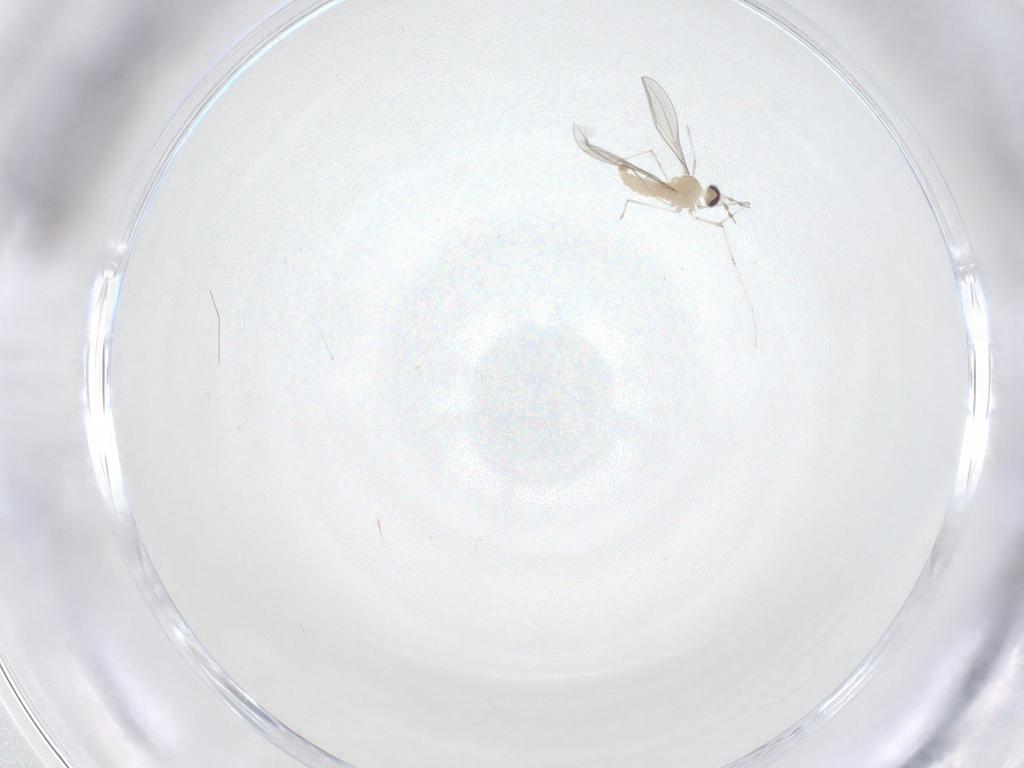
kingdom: Animalia
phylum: Arthropoda
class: Insecta
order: Diptera
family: Cecidomyiidae
